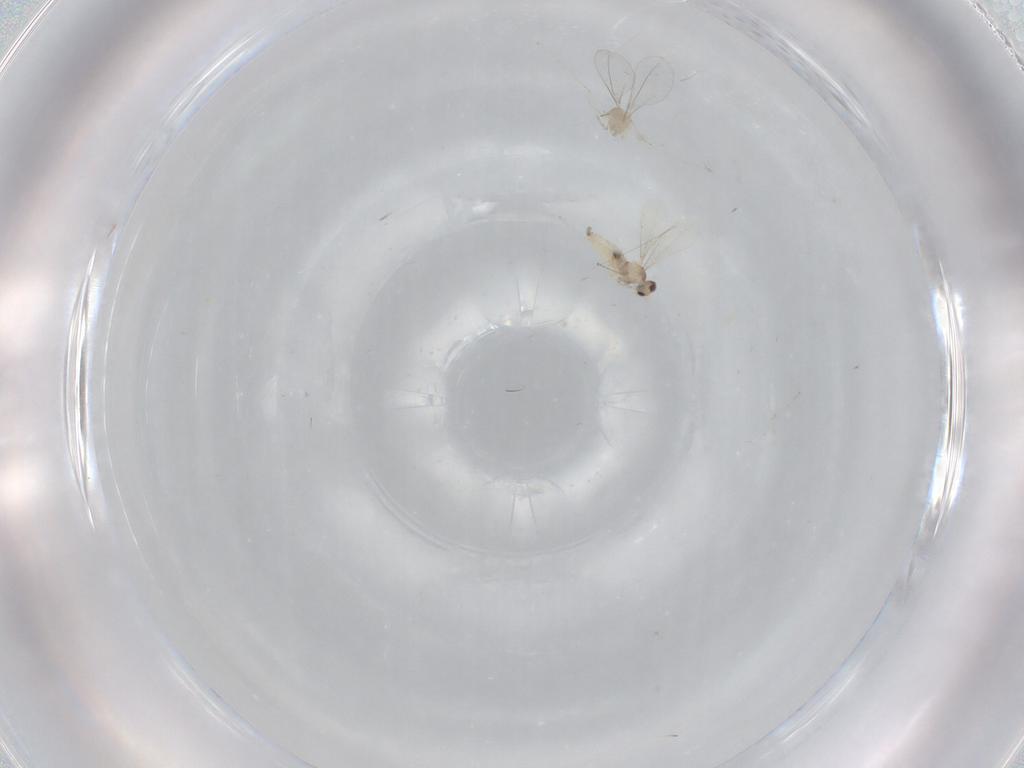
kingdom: Animalia
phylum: Arthropoda
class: Insecta
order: Diptera
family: Cecidomyiidae
